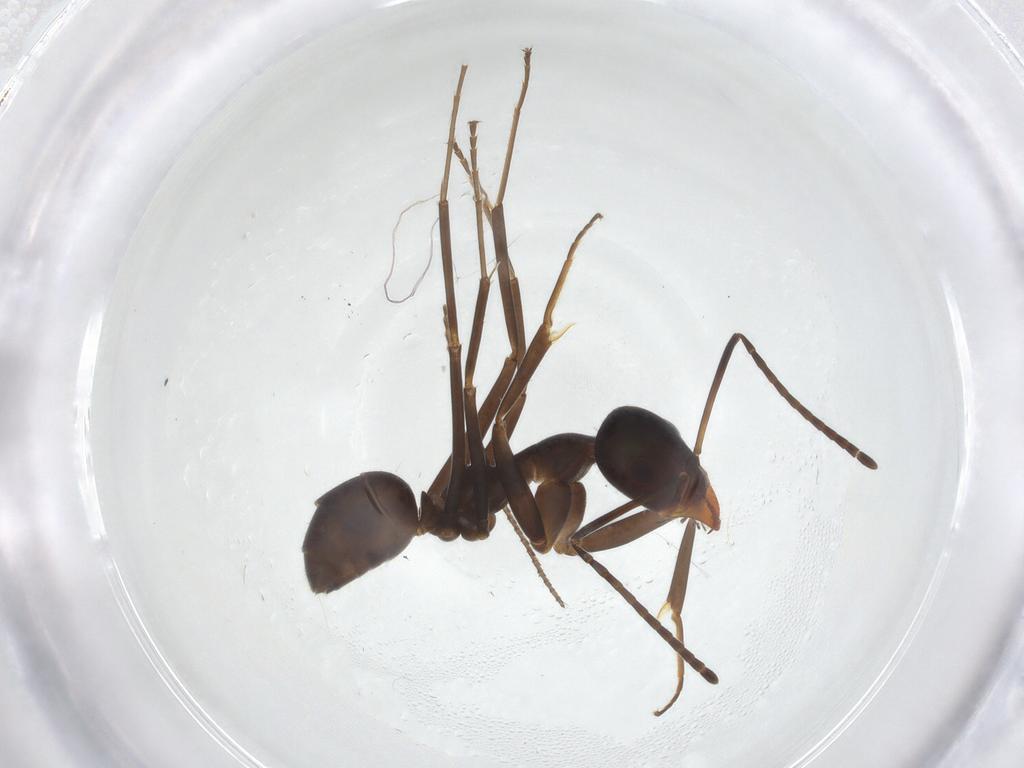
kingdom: Animalia
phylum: Arthropoda
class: Insecta
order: Hymenoptera
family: Formicidae
